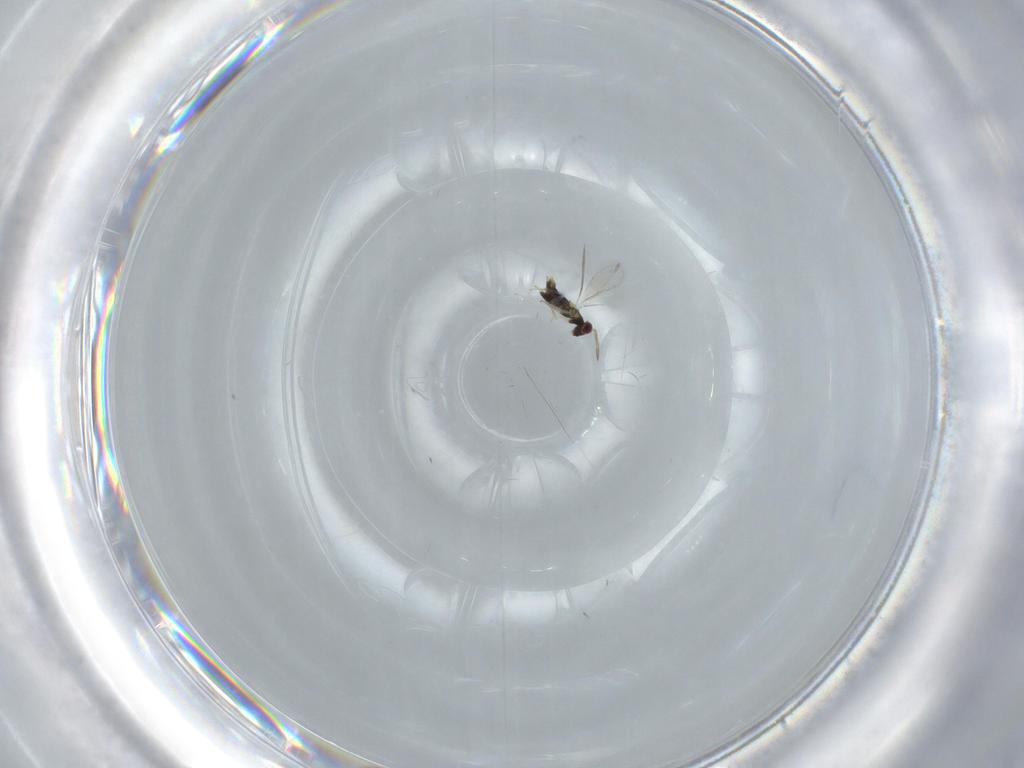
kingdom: Animalia
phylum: Arthropoda
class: Insecta
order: Hymenoptera
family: Aphelinidae
